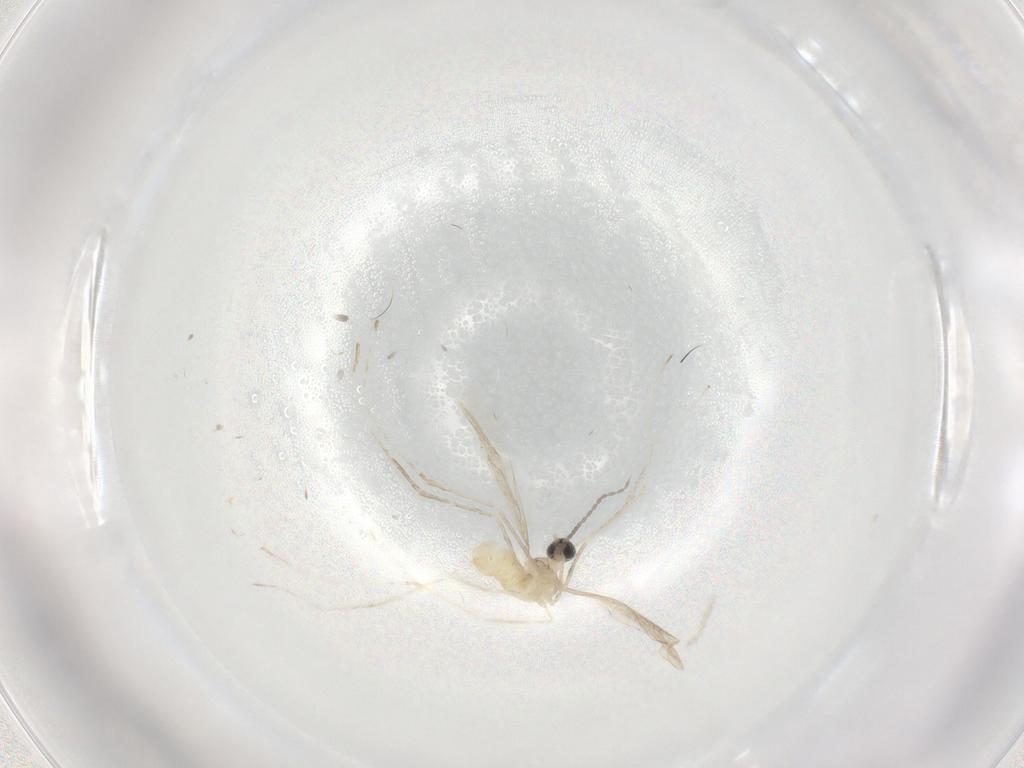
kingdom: Animalia
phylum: Arthropoda
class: Insecta
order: Diptera
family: Cecidomyiidae
